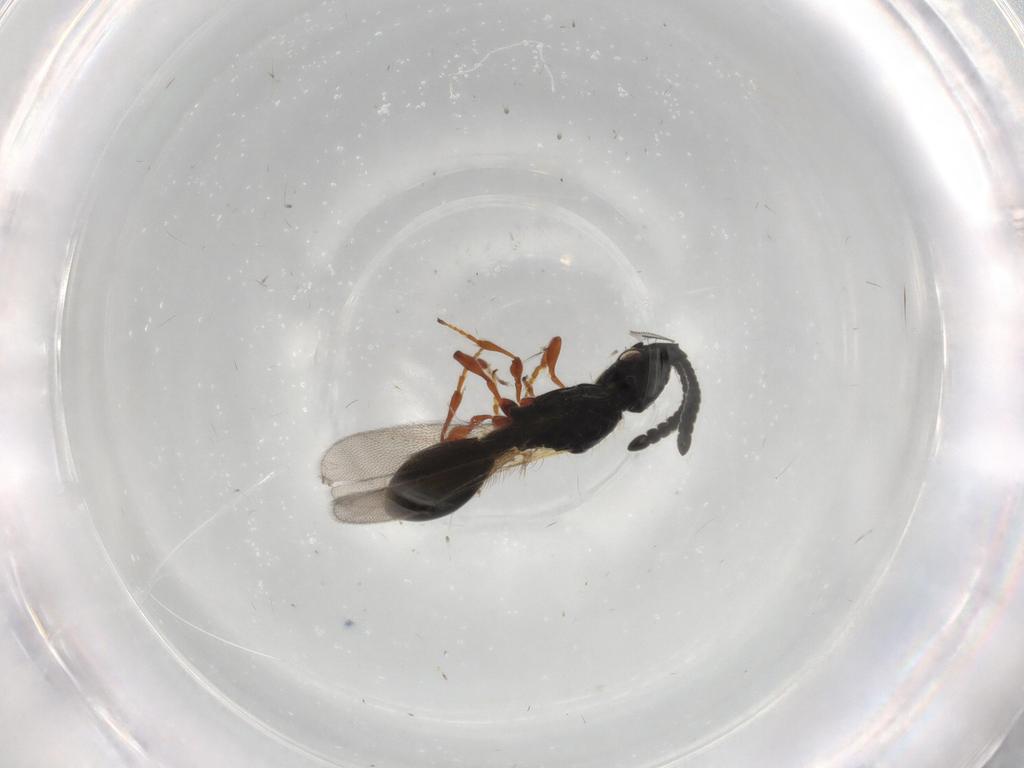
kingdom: Animalia
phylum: Arthropoda
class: Insecta
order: Hymenoptera
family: Diapriidae
